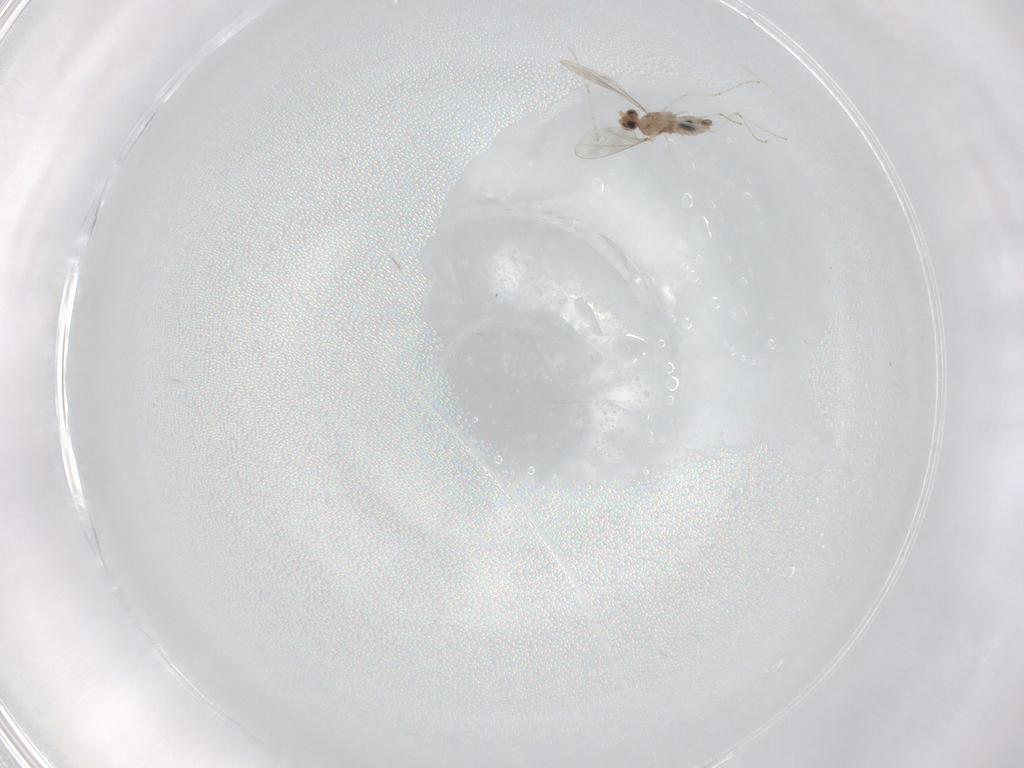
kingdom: Animalia
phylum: Arthropoda
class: Insecta
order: Diptera
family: Cecidomyiidae
